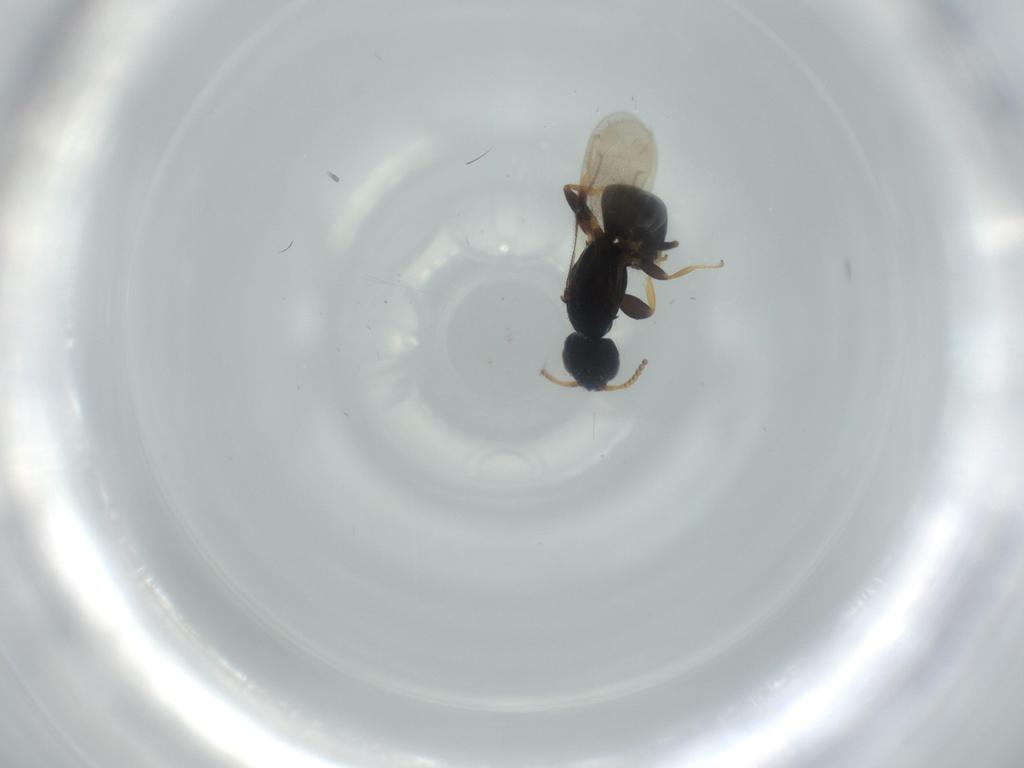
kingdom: Animalia
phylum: Arthropoda
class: Insecta
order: Hymenoptera
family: Bethylidae
